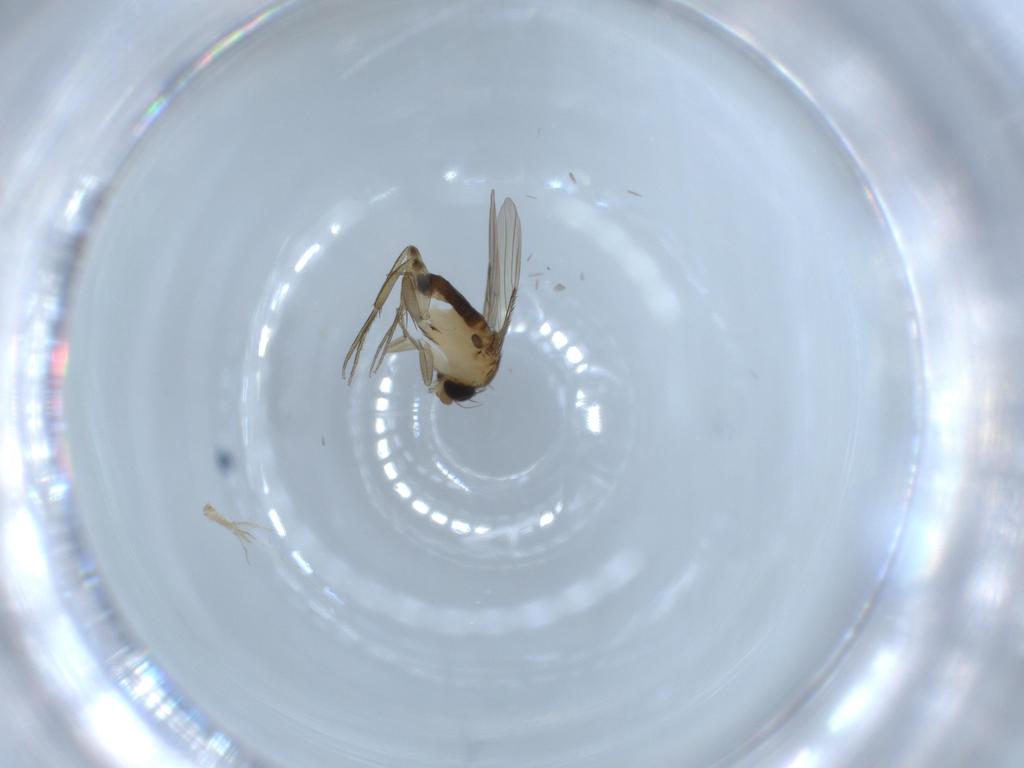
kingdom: Animalia
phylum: Arthropoda
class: Insecta
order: Diptera
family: Phoridae
